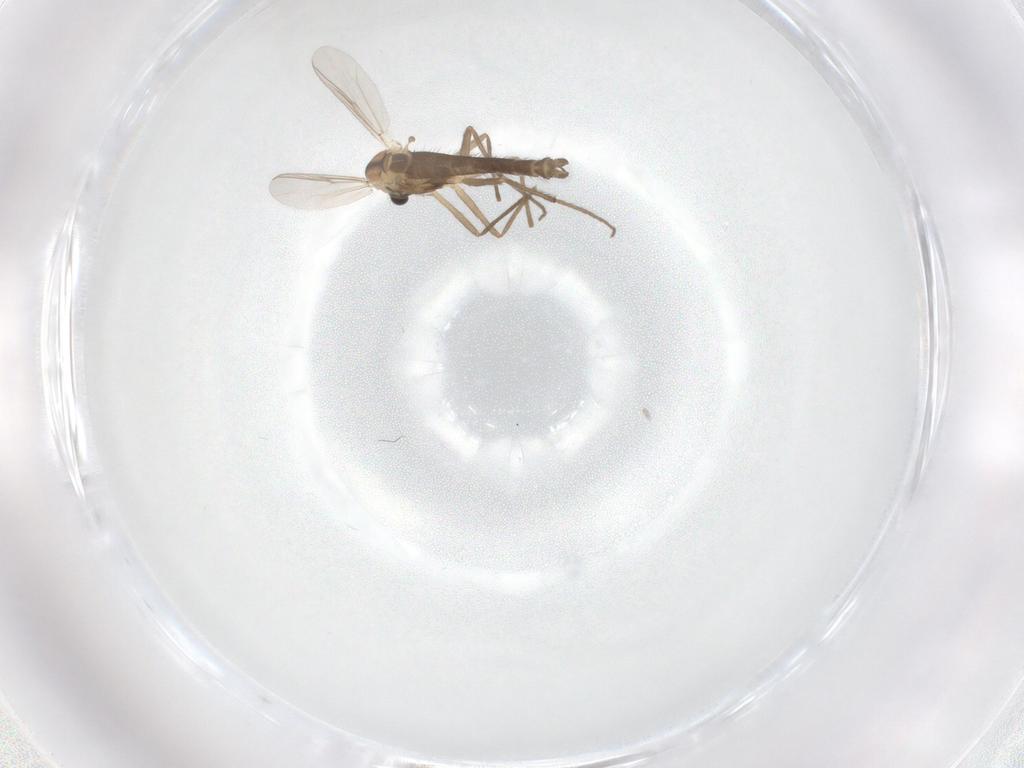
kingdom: Animalia
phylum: Arthropoda
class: Insecta
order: Diptera
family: Chironomidae
